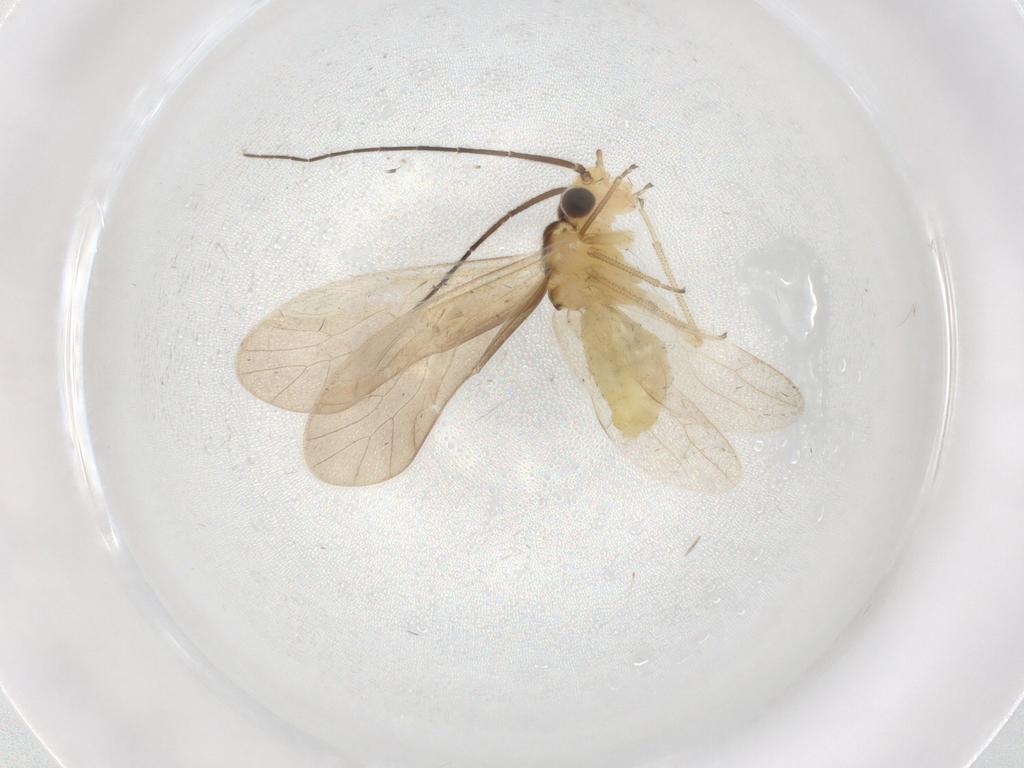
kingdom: Animalia
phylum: Arthropoda
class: Insecta
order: Psocodea
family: Caeciliusidae
